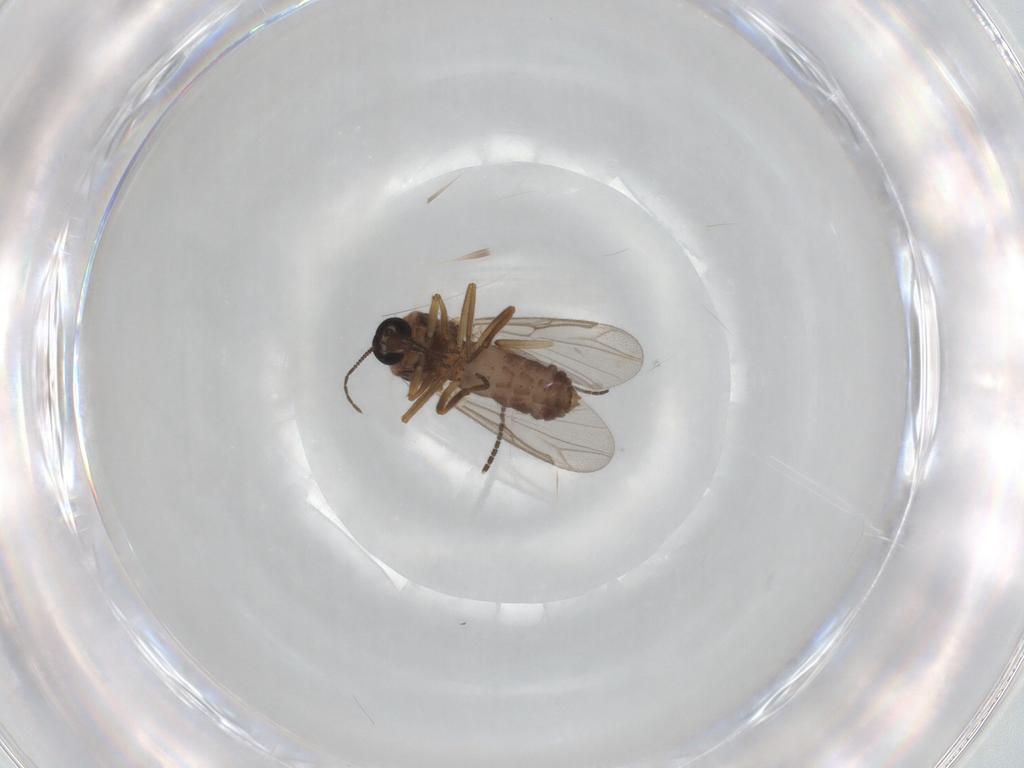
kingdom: Animalia
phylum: Arthropoda
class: Insecta
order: Diptera
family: Ceratopogonidae
